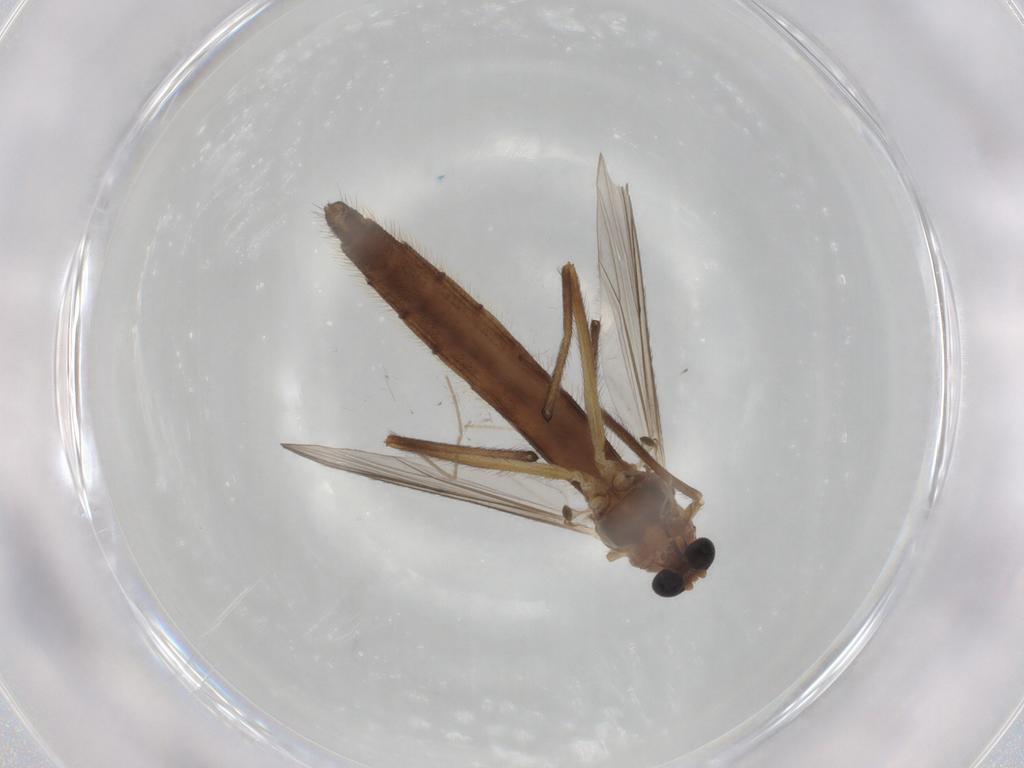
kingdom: Animalia
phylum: Arthropoda
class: Insecta
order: Diptera
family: Chironomidae
